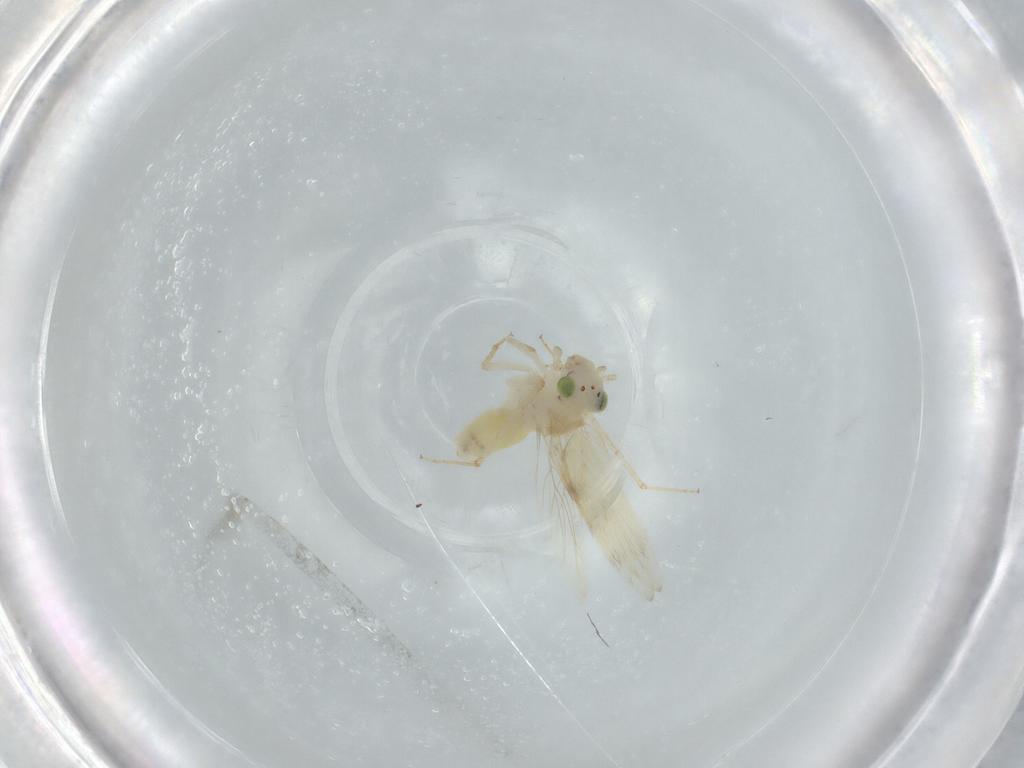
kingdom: Animalia
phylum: Arthropoda
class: Insecta
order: Psocodea
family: Lepidopsocidae
